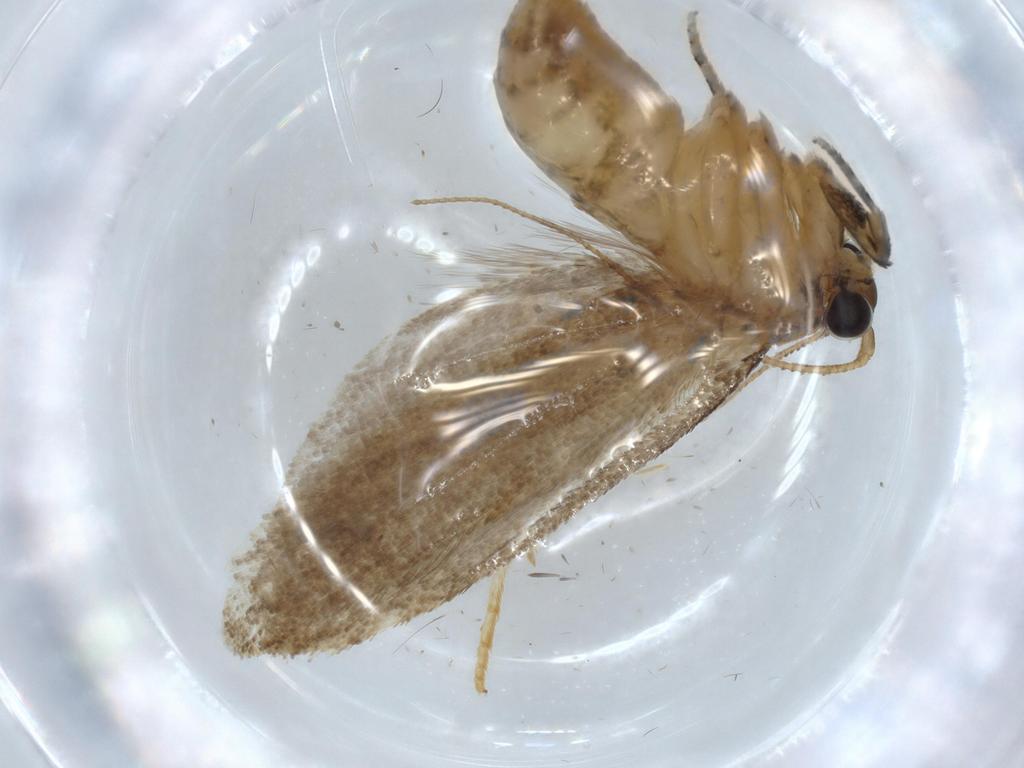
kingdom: Animalia
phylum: Arthropoda
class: Insecta
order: Lepidoptera
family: Tineidae
